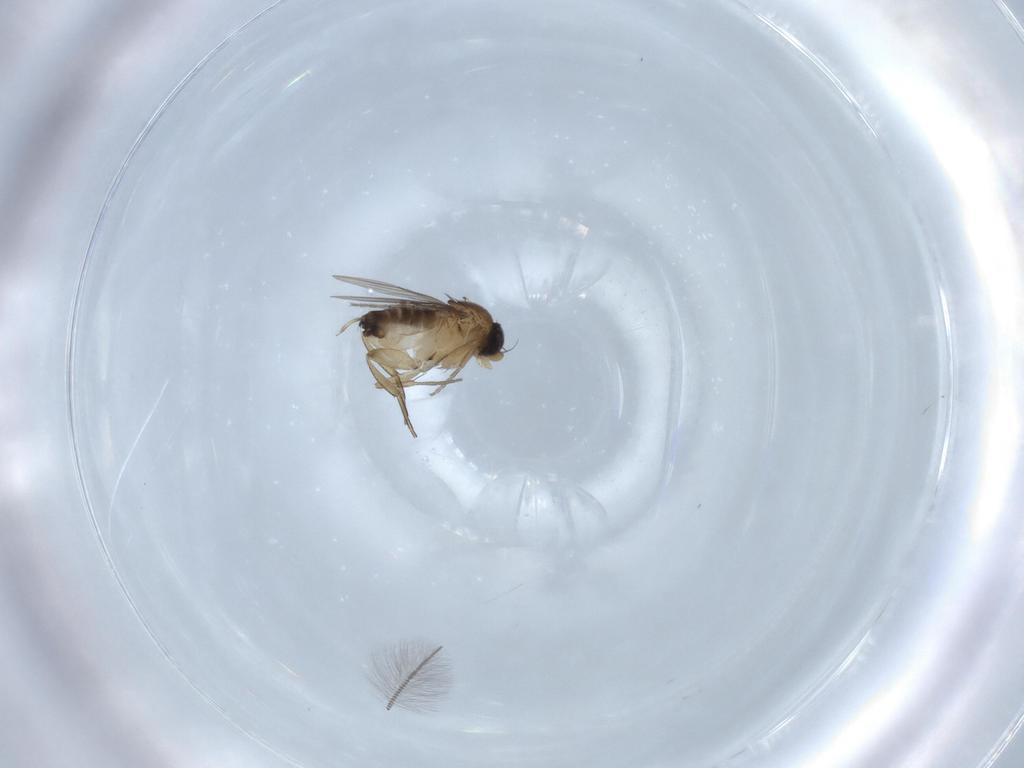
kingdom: Animalia
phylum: Arthropoda
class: Insecta
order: Diptera
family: Phoridae
